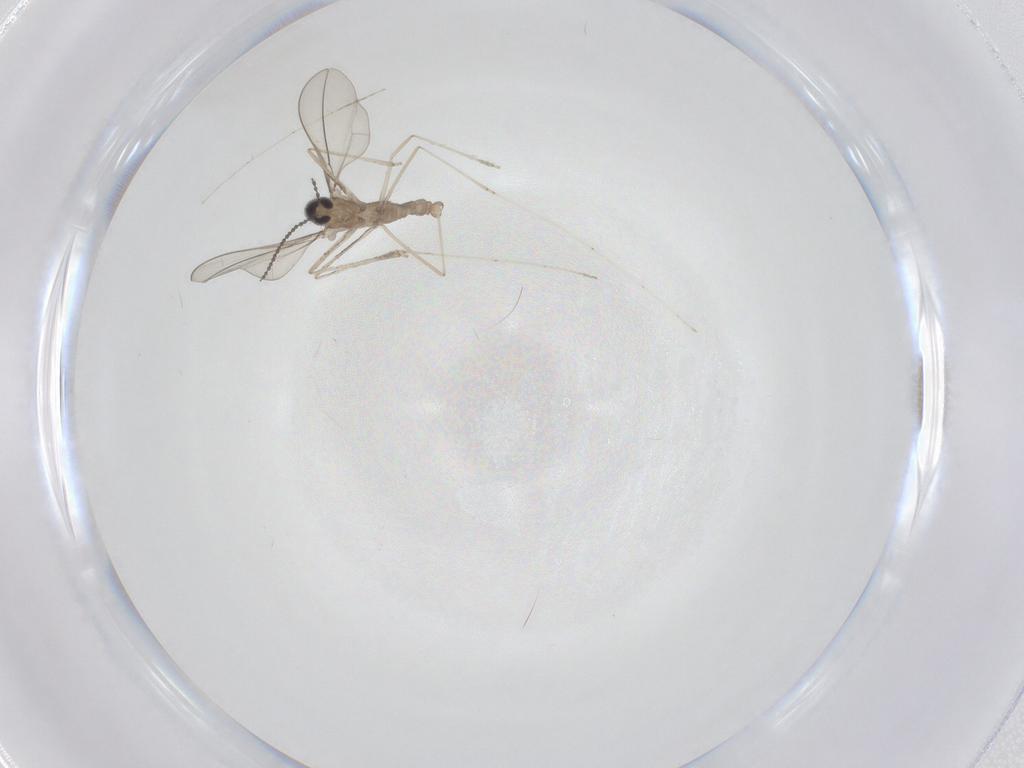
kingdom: Animalia
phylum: Arthropoda
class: Insecta
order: Diptera
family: Cecidomyiidae
